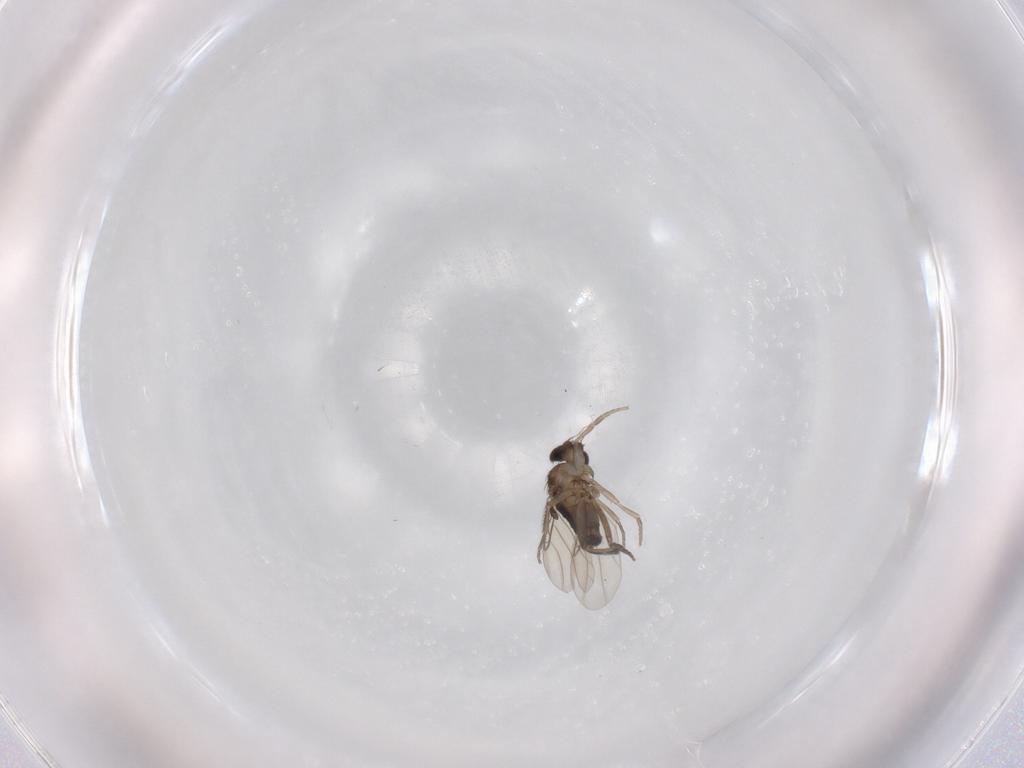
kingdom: Animalia
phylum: Arthropoda
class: Insecta
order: Diptera
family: Phoridae
